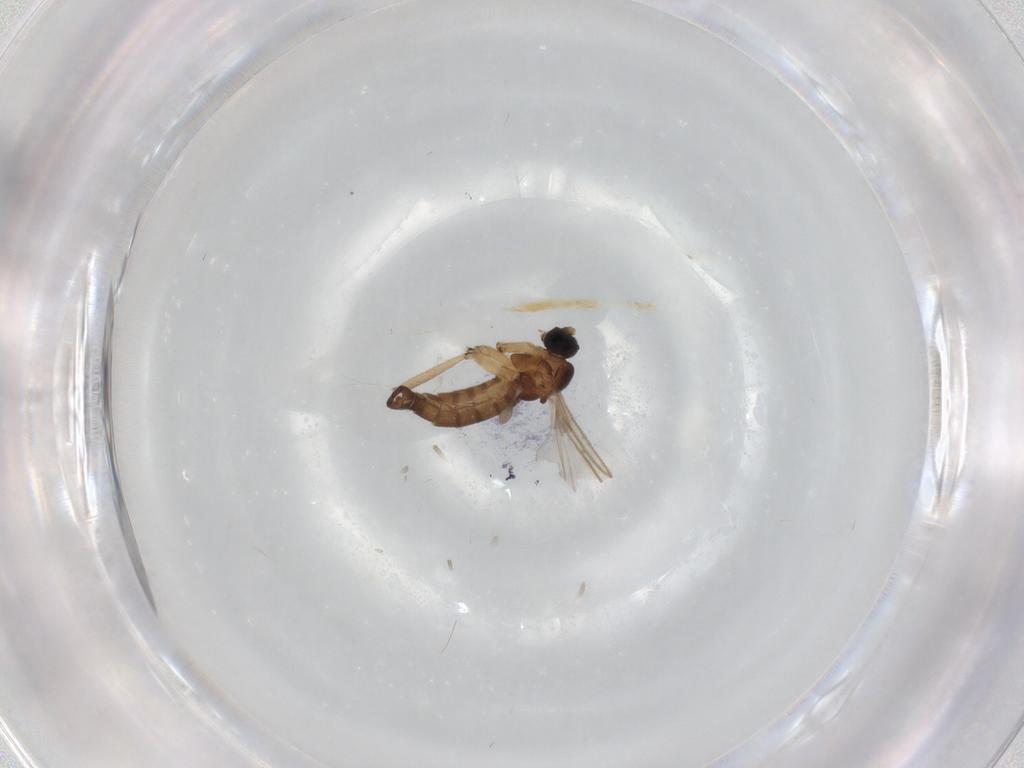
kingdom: Animalia
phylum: Arthropoda
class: Insecta
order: Diptera
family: Sciaridae
